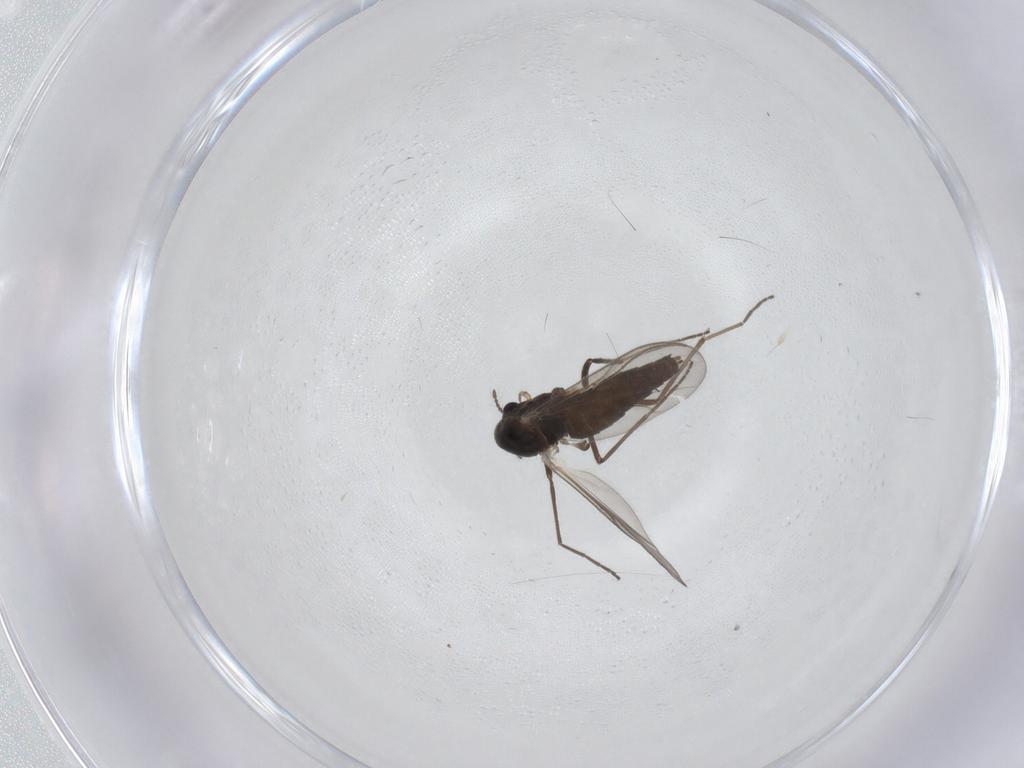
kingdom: Animalia
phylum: Arthropoda
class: Insecta
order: Diptera
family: Chironomidae
